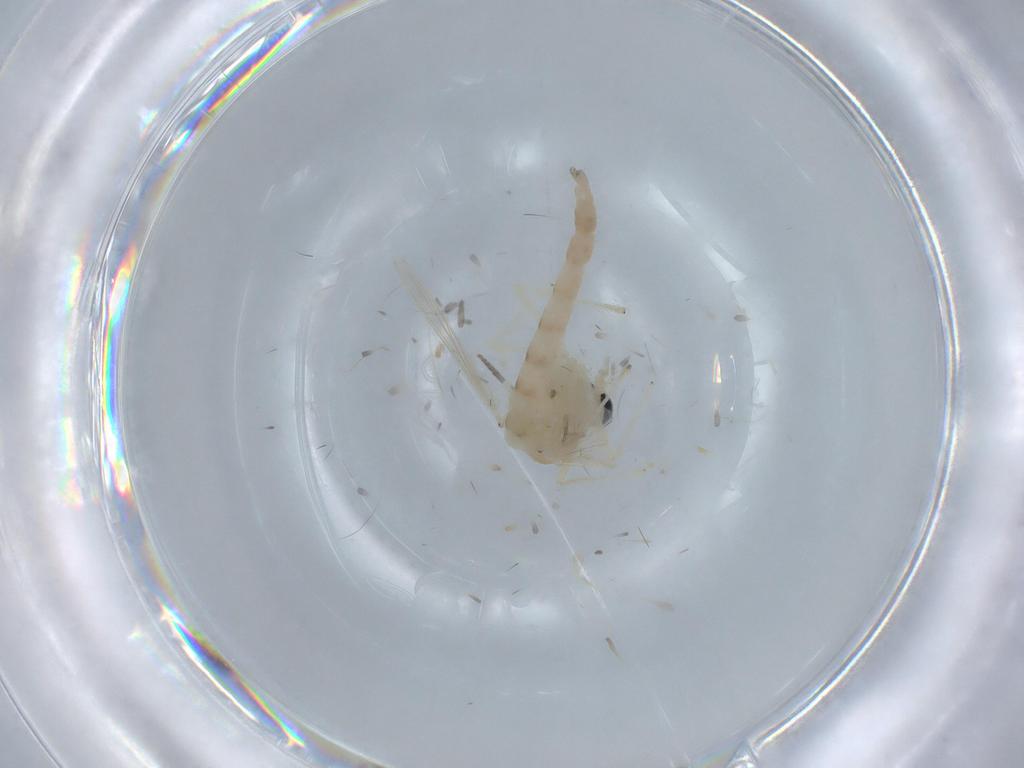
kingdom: Animalia
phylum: Arthropoda
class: Insecta
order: Diptera
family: Chironomidae
